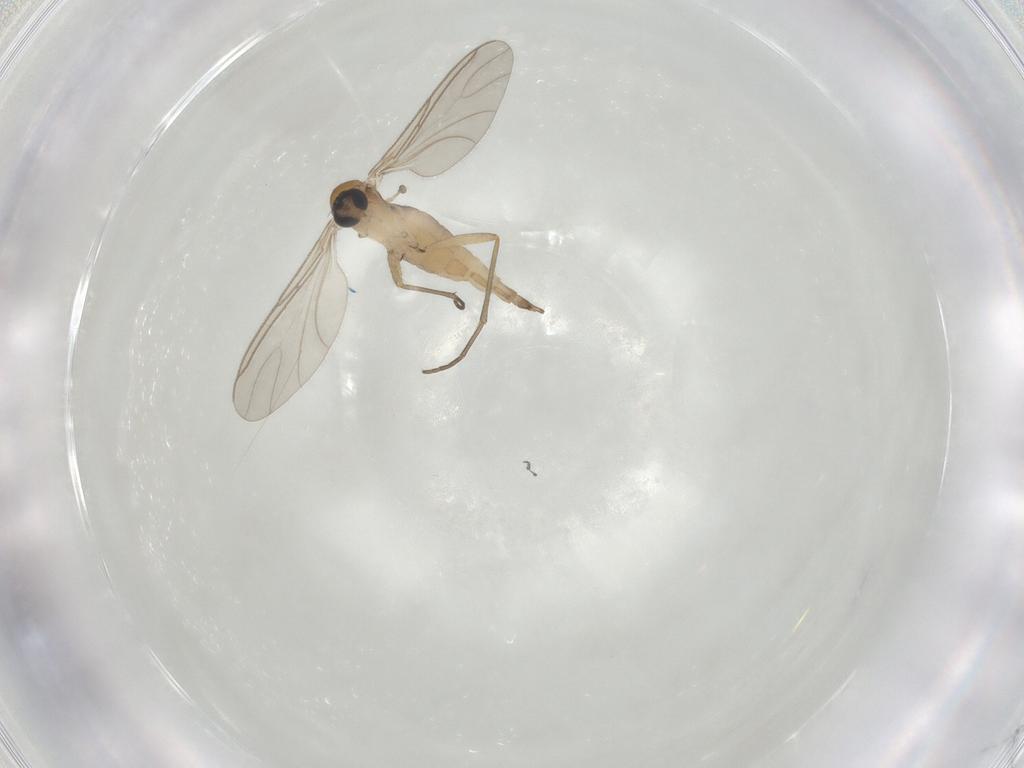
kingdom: Animalia
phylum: Arthropoda
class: Insecta
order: Diptera
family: Sciaridae
